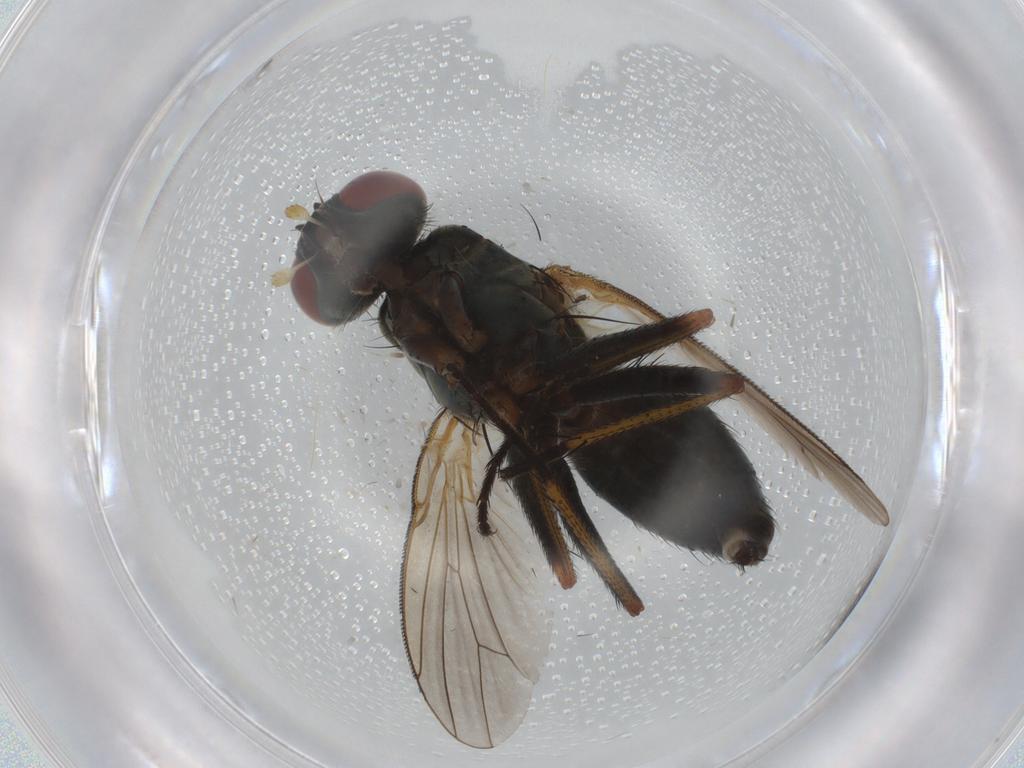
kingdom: Animalia
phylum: Arthropoda
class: Insecta
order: Diptera
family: Muscidae
